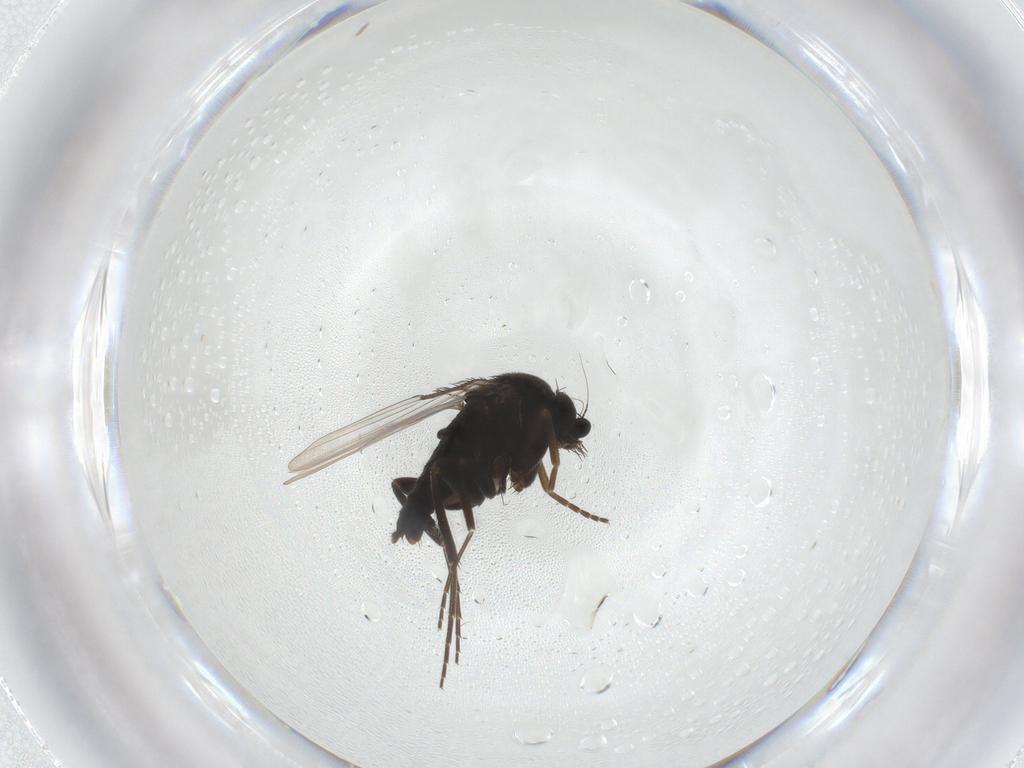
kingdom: Animalia
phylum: Arthropoda
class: Insecta
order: Diptera
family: Phoridae
